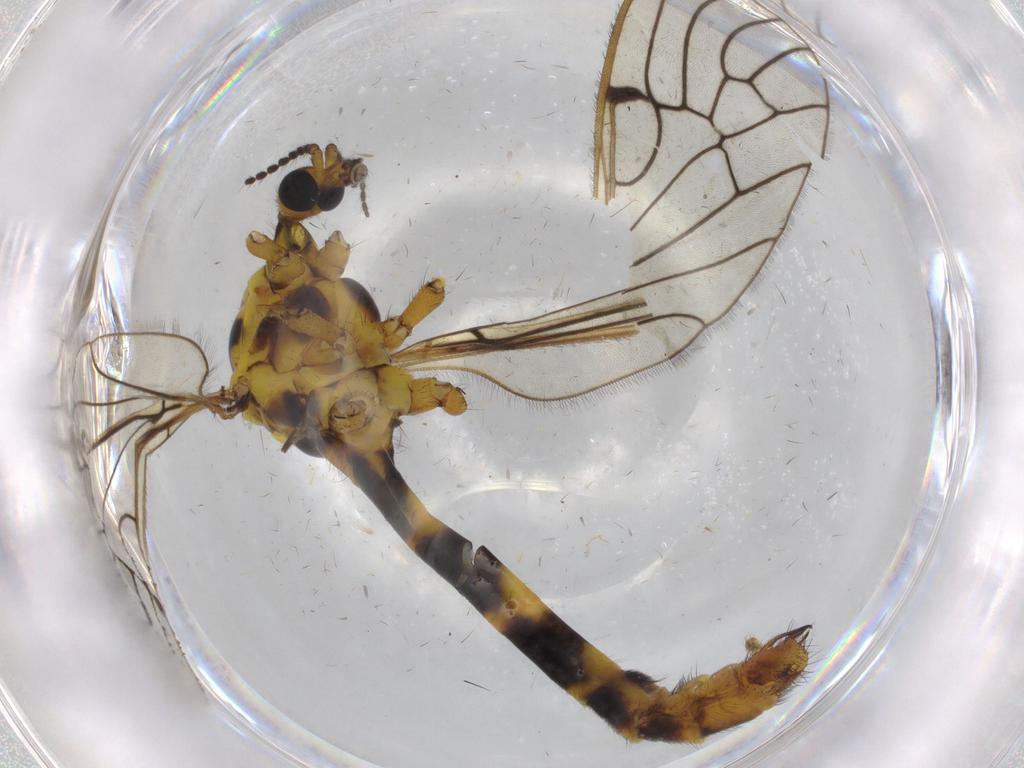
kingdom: Animalia
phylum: Arthropoda
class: Insecta
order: Diptera
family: Limoniidae
